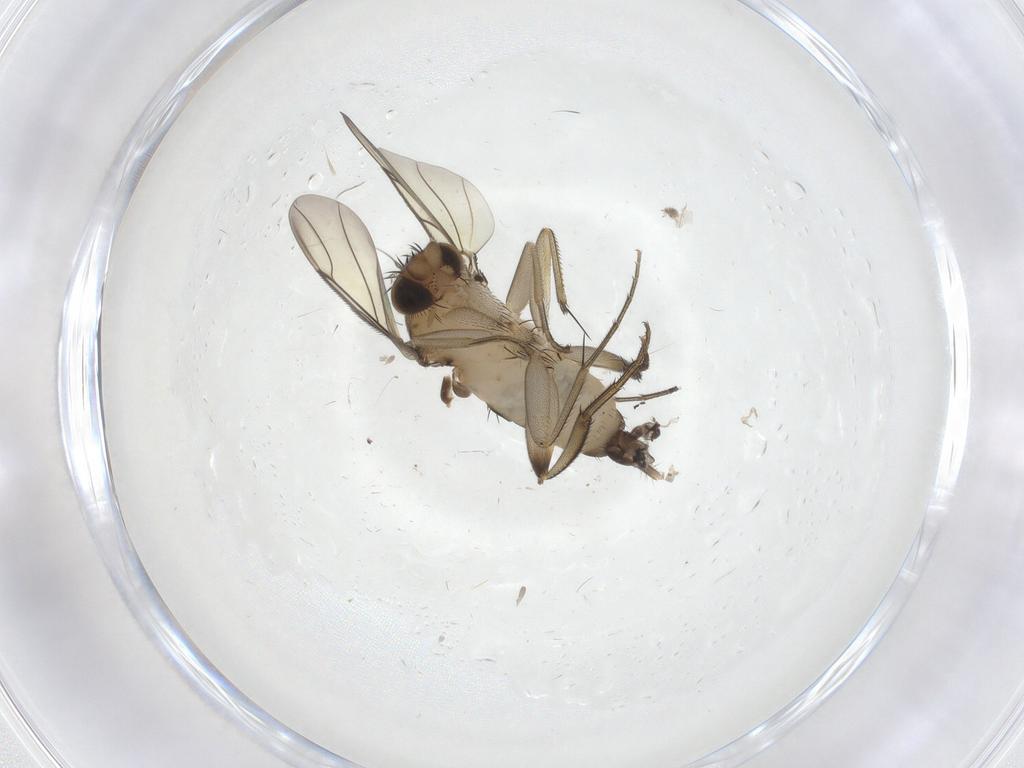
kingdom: Animalia
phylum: Arthropoda
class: Insecta
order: Diptera
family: Phoridae
